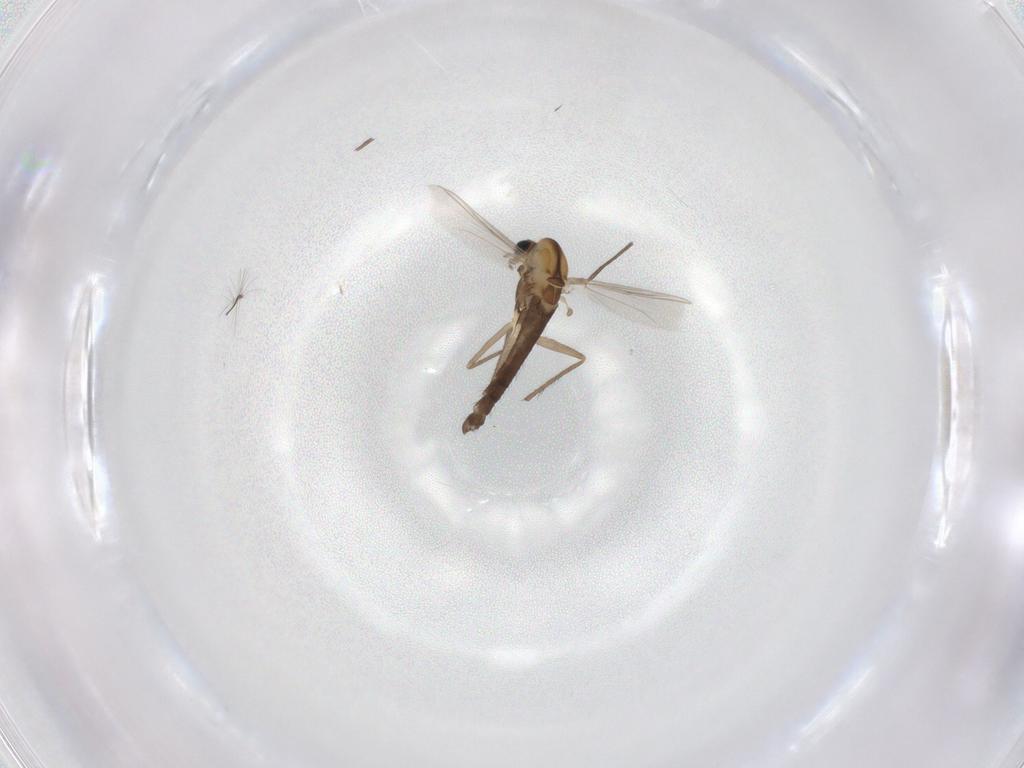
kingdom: Animalia
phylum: Arthropoda
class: Insecta
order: Diptera
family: Chironomidae
